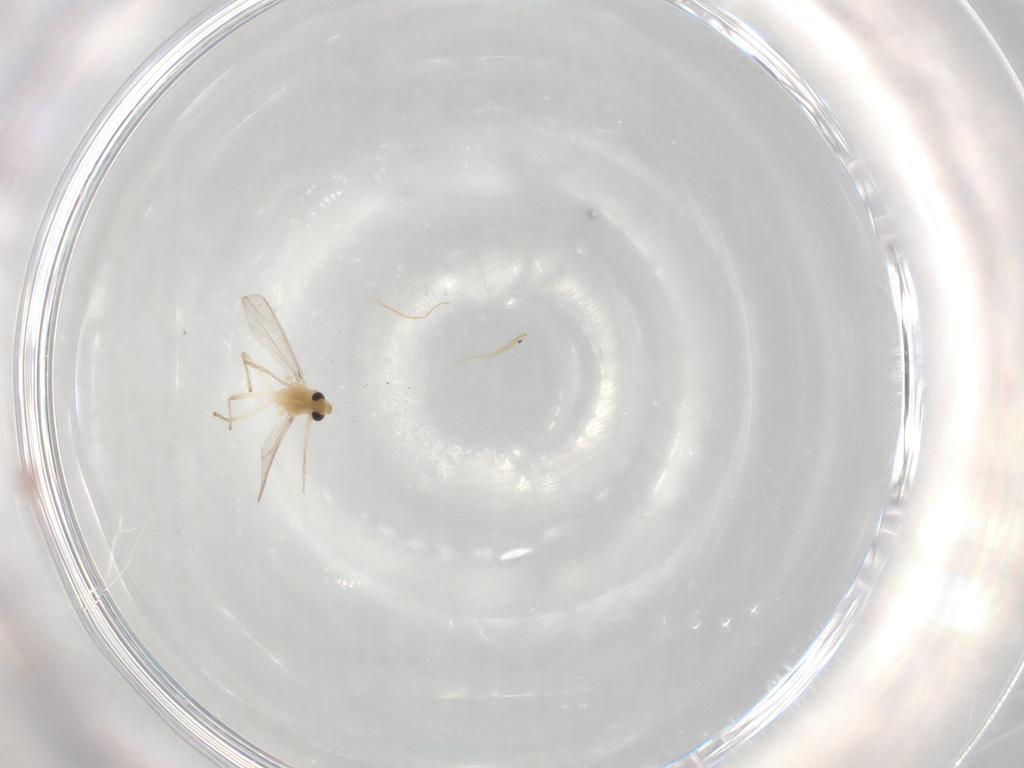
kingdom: Animalia
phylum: Arthropoda
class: Insecta
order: Diptera
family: Chironomidae
